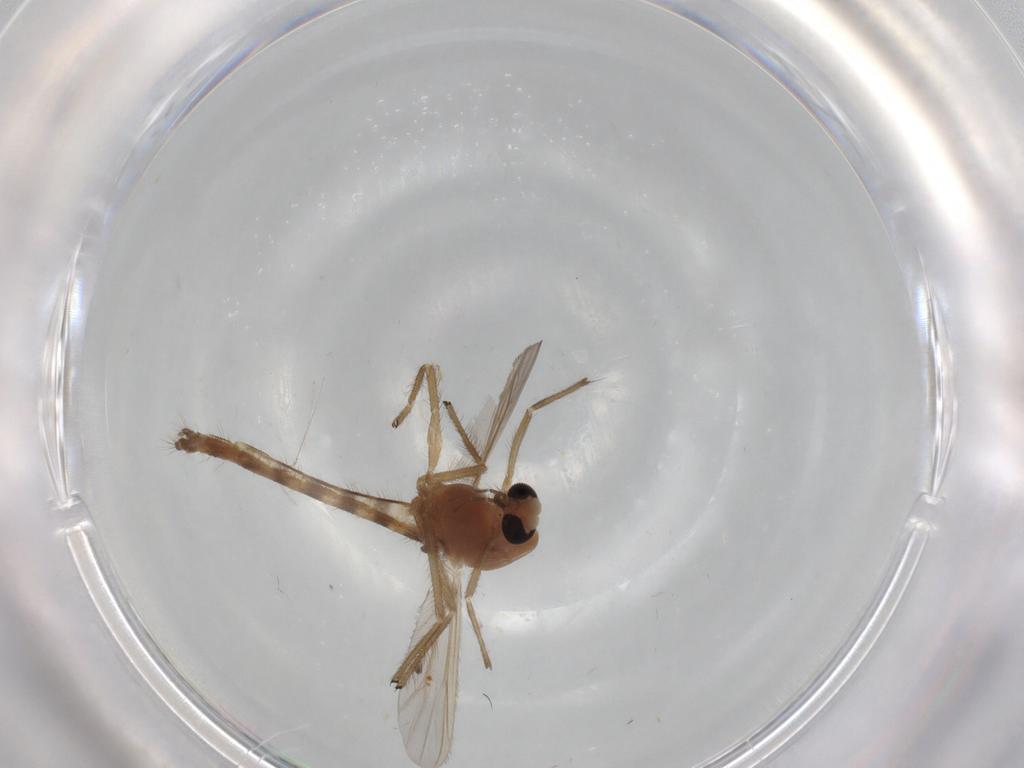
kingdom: Animalia
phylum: Arthropoda
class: Insecta
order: Diptera
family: Chironomidae
